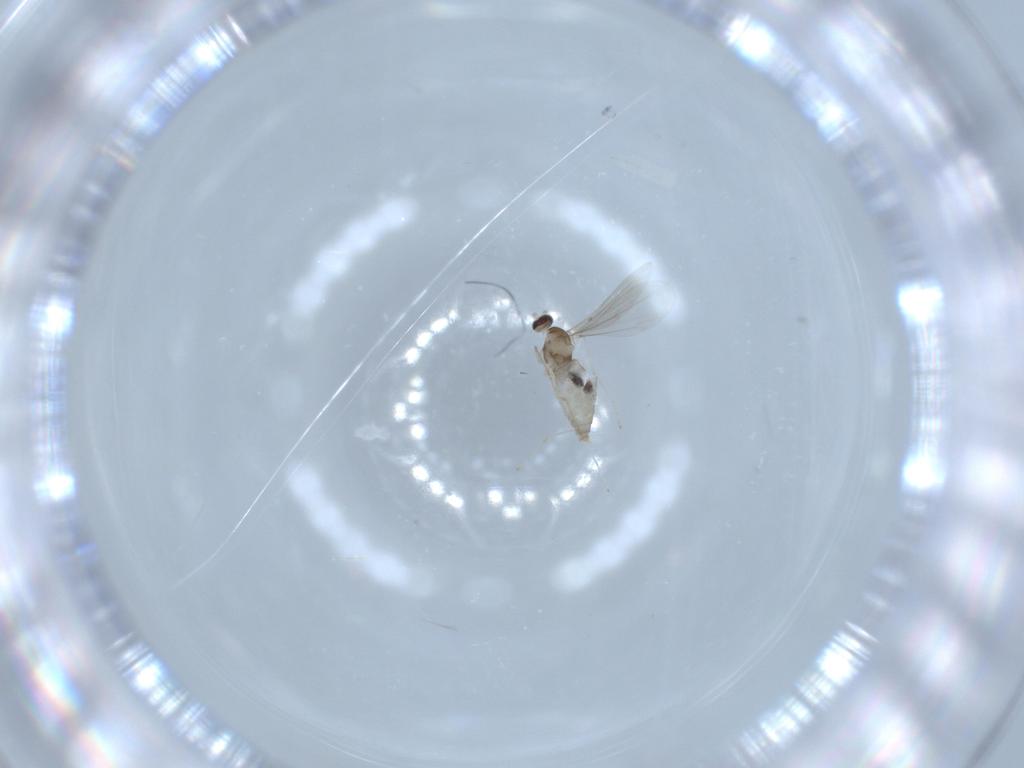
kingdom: Animalia
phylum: Arthropoda
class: Insecta
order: Diptera
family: Cecidomyiidae
